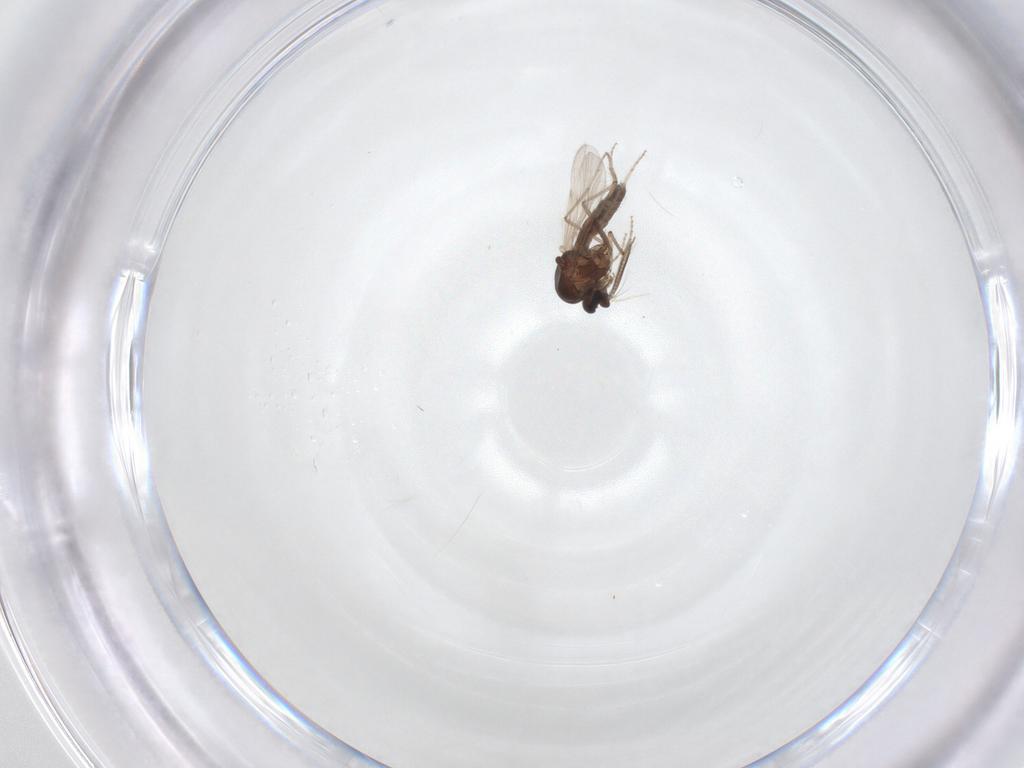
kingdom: Animalia
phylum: Arthropoda
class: Insecta
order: Diptera
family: Ceratopogonidae
